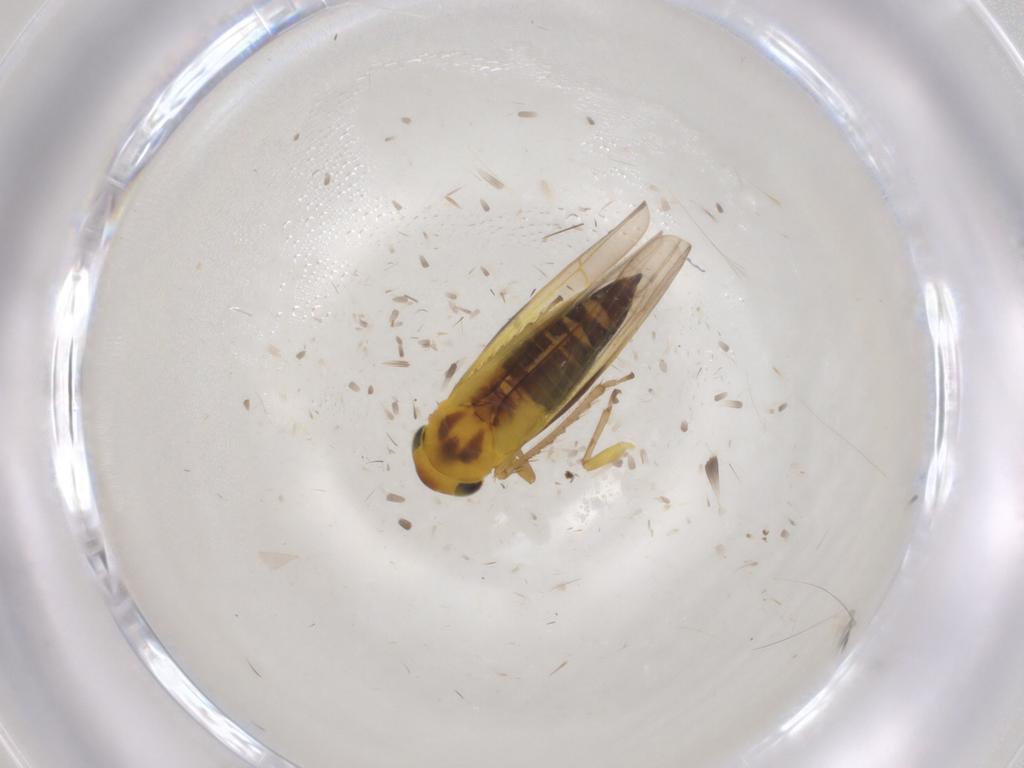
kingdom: Animalia
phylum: Arthropoda
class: Insecta
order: Hemiptera
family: Cicadellidae
